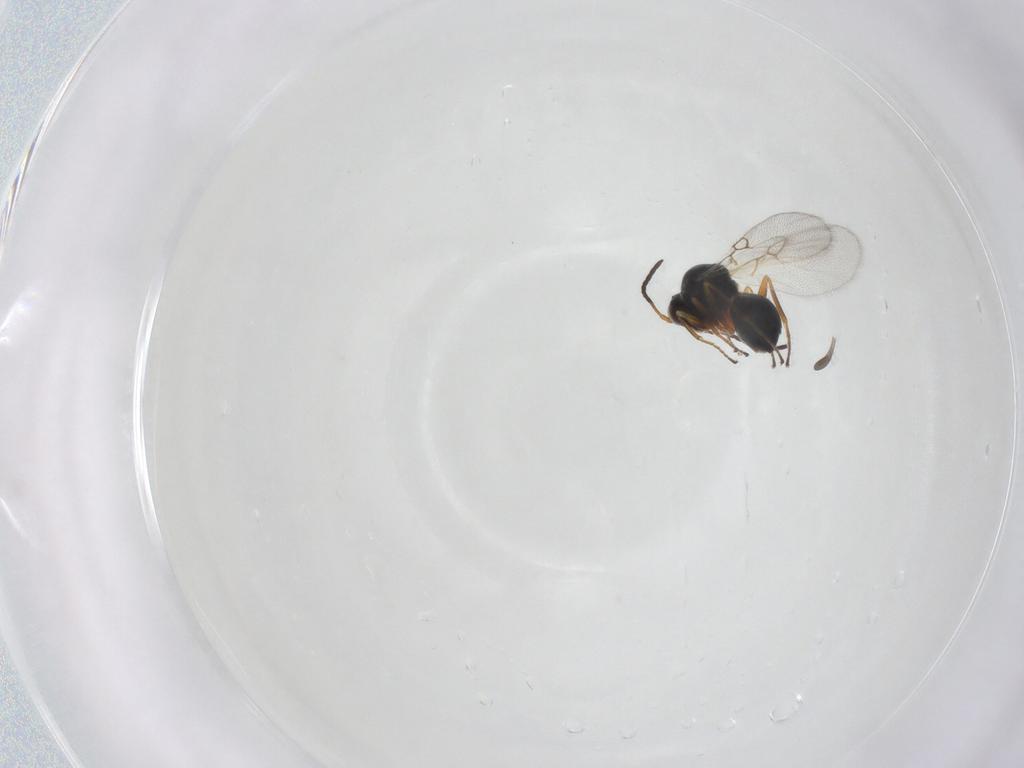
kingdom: Animalia
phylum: Arthropoda
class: Insecta
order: Hymenoptera
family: Figitidae
